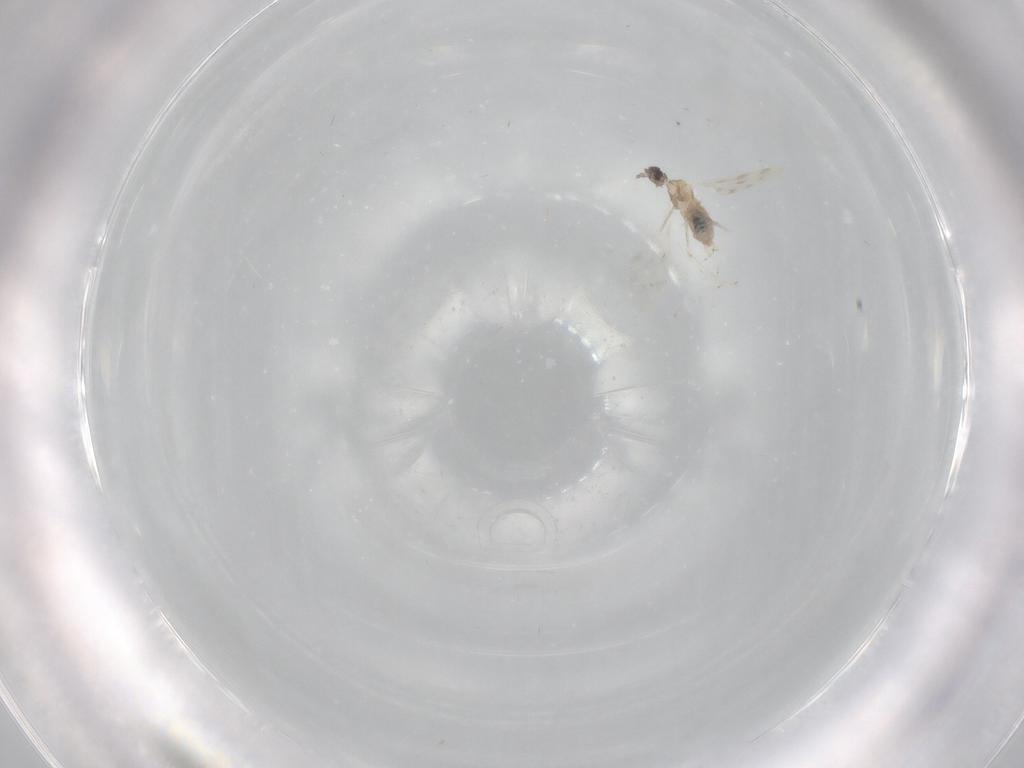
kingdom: Animalia
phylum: Arthropoda
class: Insecta
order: Diptera
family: Cecidomyiidae
